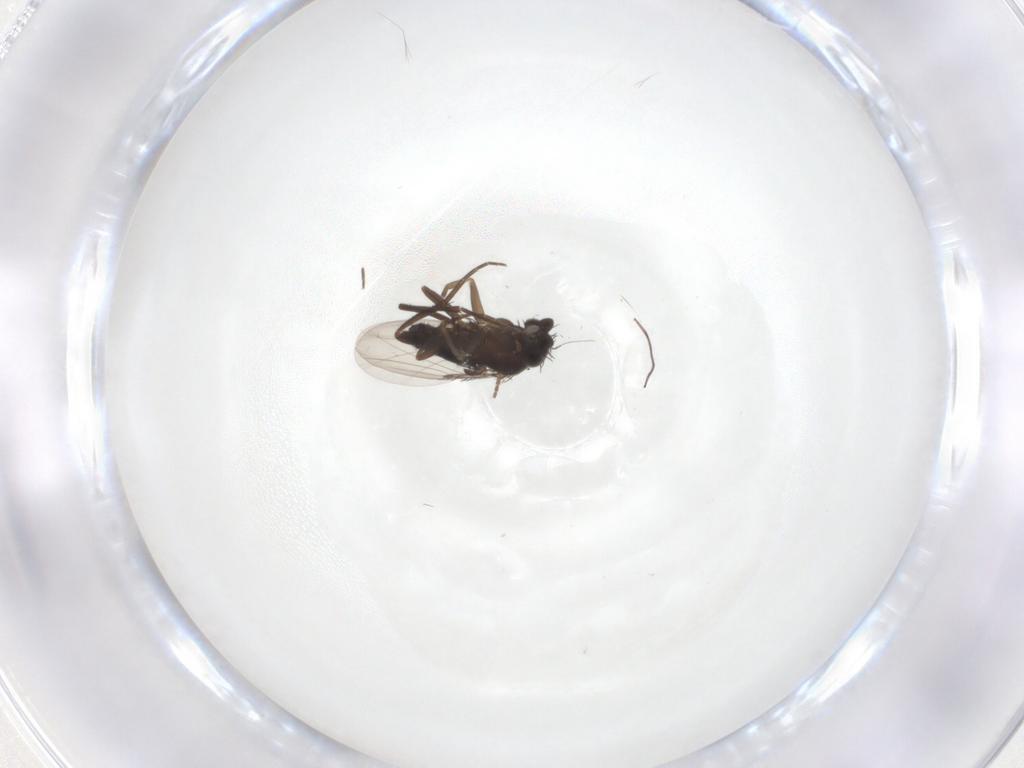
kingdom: Animalia
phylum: Arthropoda
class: Insecta
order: Diptera
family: Phoridae
